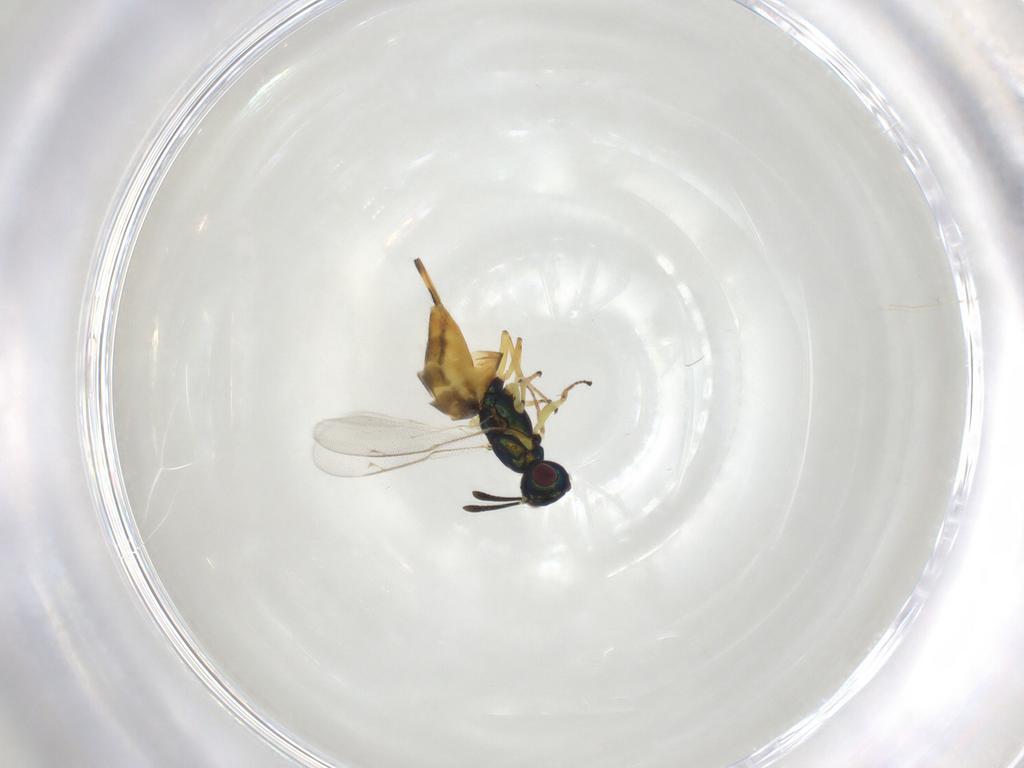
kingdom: Animalia
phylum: Arthropoda
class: Insecta
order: Hymenoptera
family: Eupelmidae
